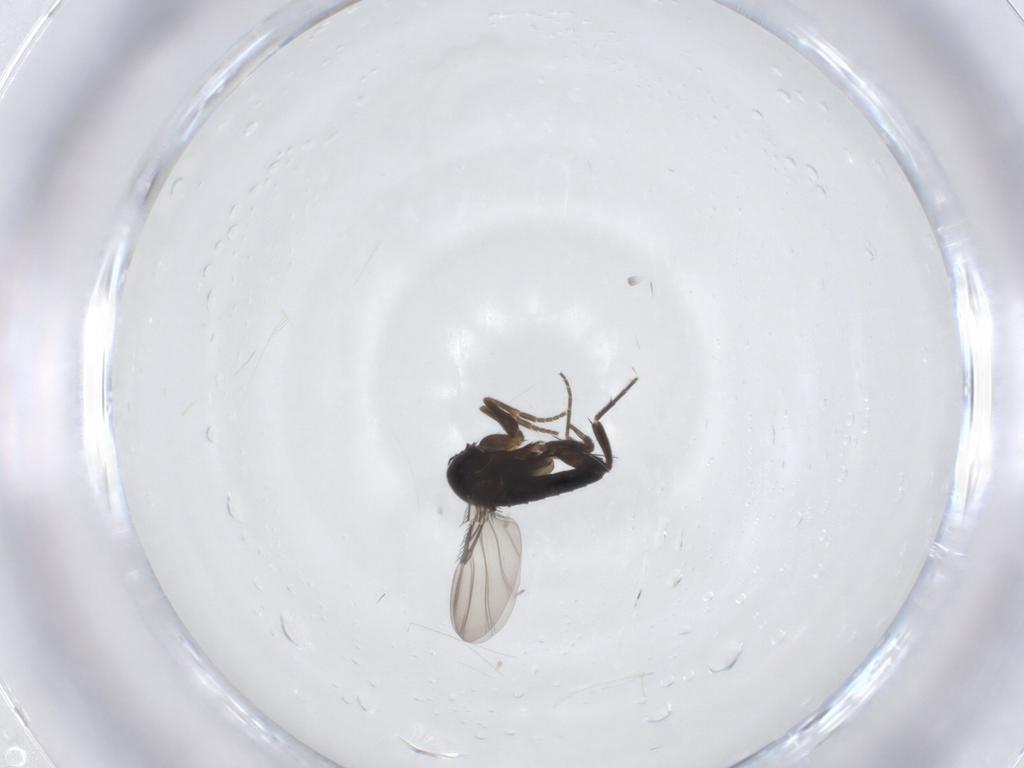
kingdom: Animalia
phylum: Arthropoda
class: Insecta
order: Diptera
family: Phoridae
